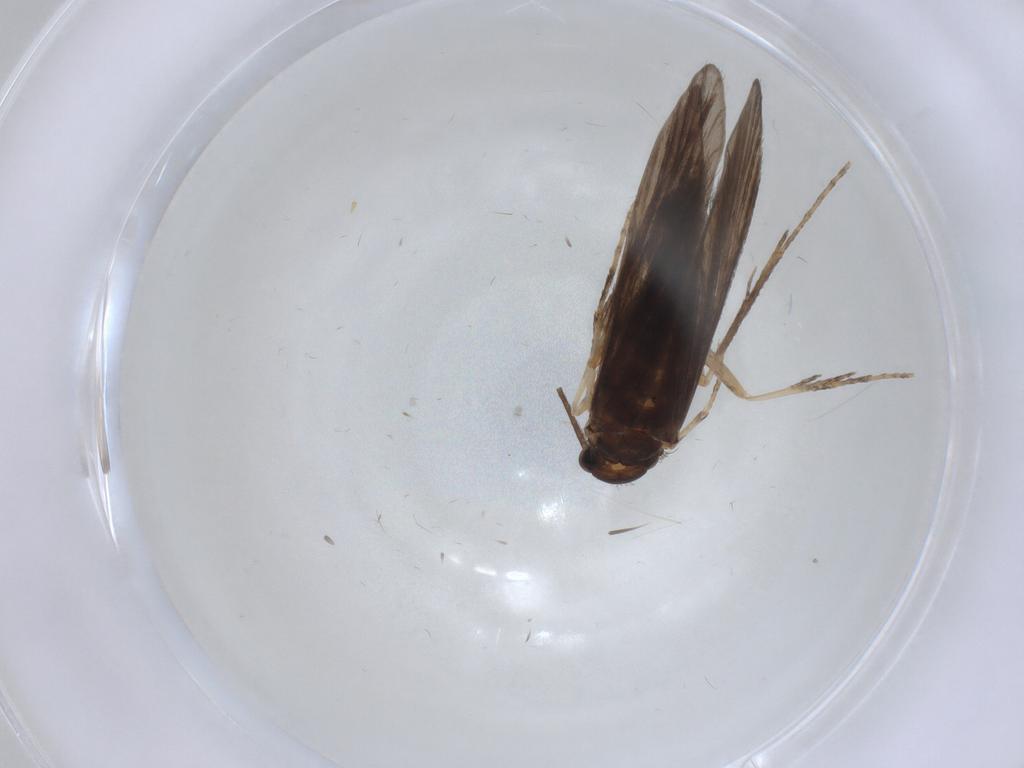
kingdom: Animalia
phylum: Arthropoda
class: Insecta
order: Trichoptera
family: Xiphocentronidae
